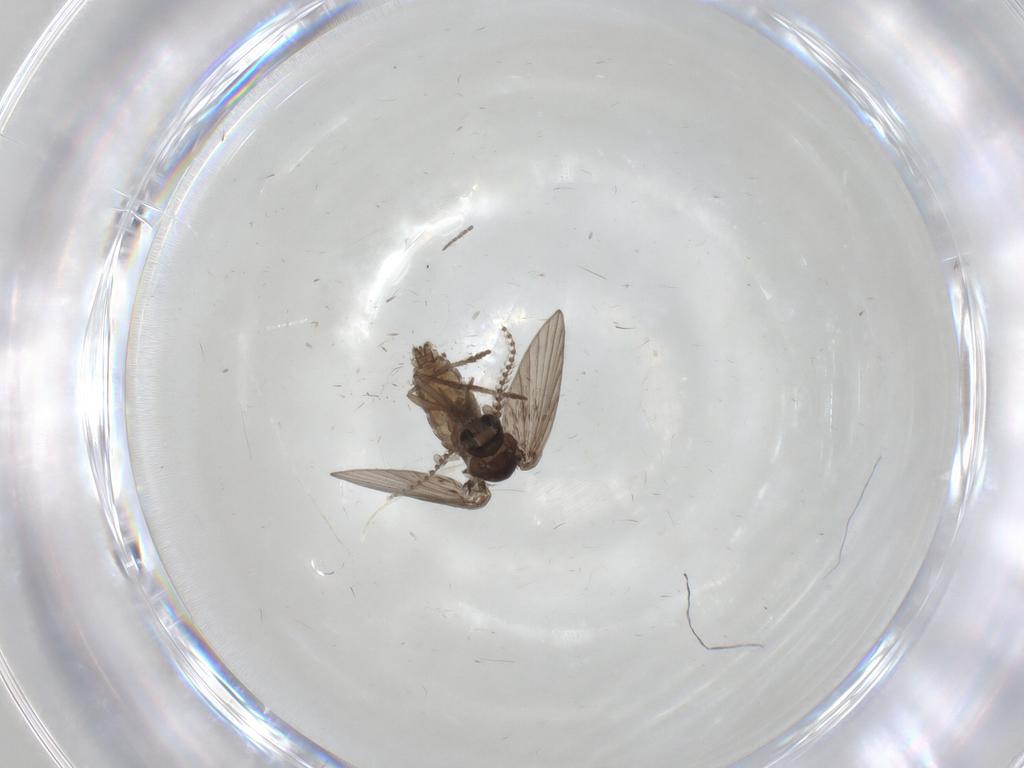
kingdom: Animalia
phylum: Arthropoda
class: Insecta
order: Diptera
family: Psychodidae
